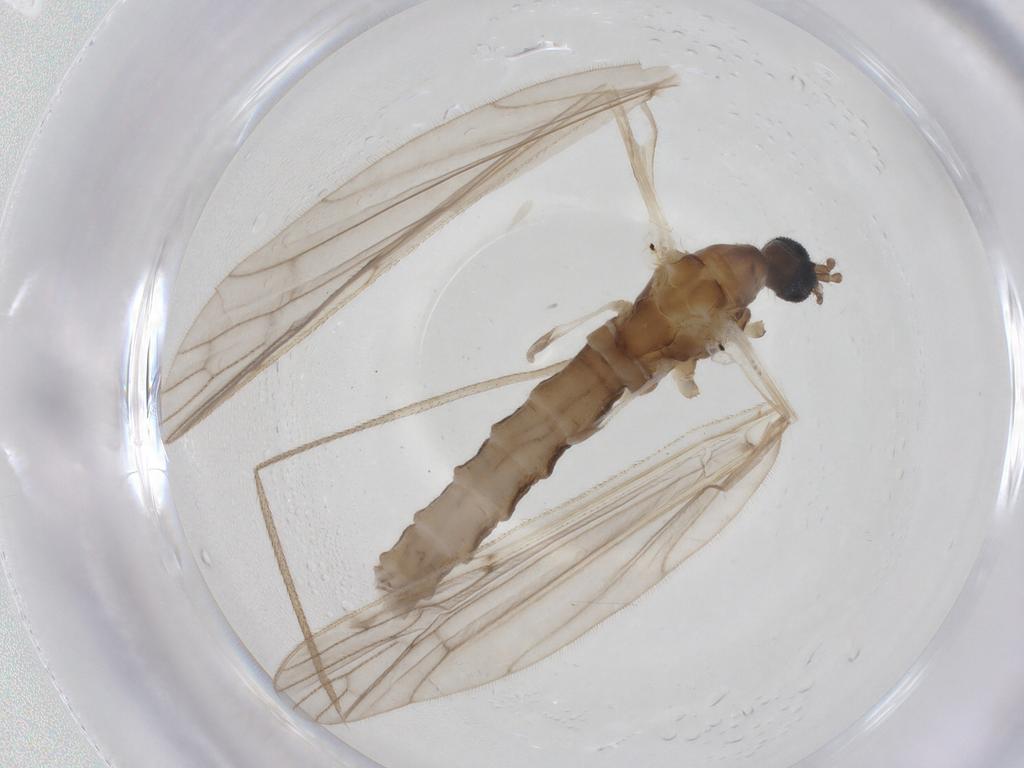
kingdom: Animalia
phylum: Arthropoda
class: Insecta
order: Diptera
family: Limoniidae
